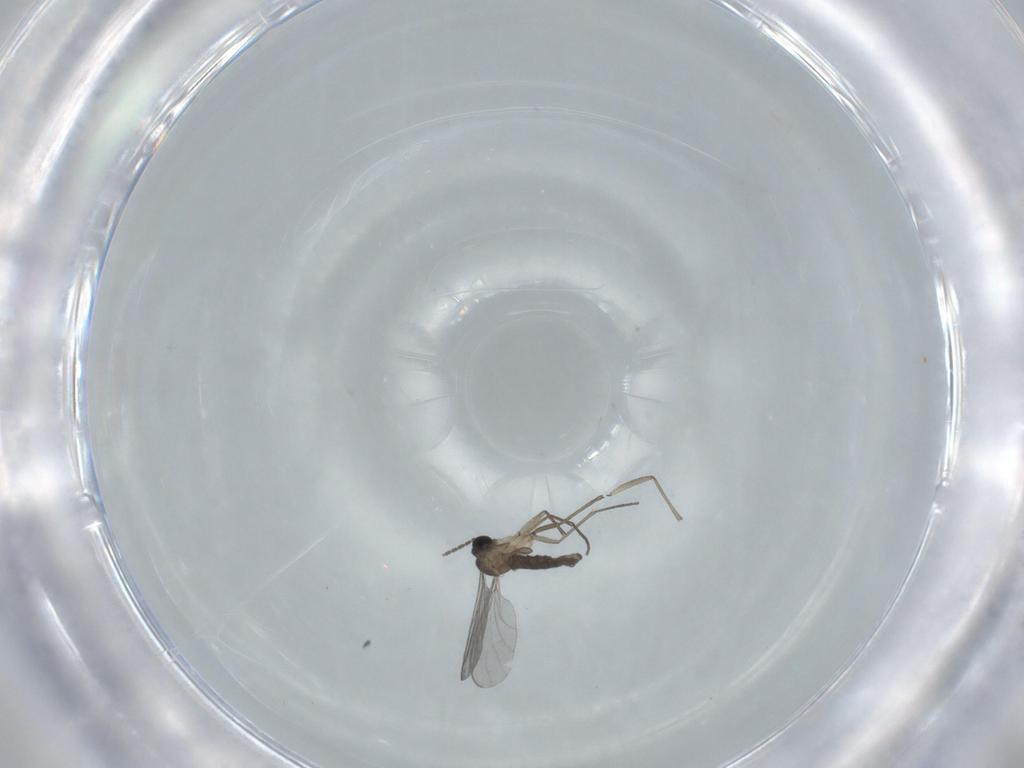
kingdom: Animalia
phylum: Arthropoda
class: Insecta
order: Diptera
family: Sciaridae
